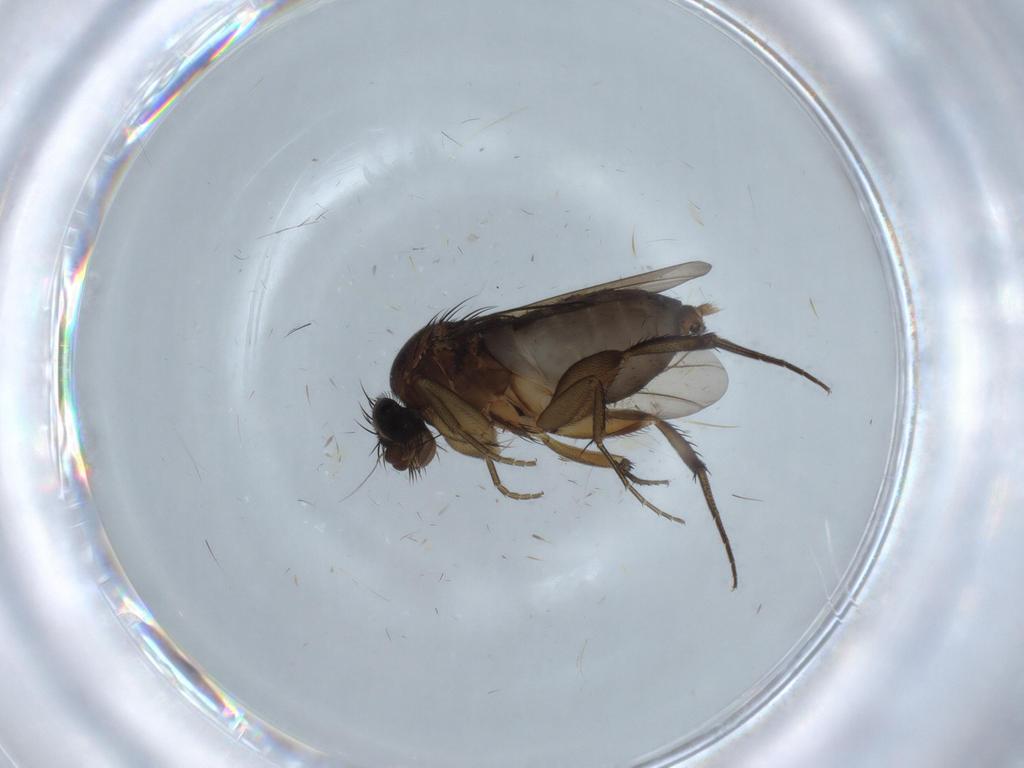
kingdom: Animalia
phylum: Arthropoda
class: Insecta
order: Diptera
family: Phoridae
